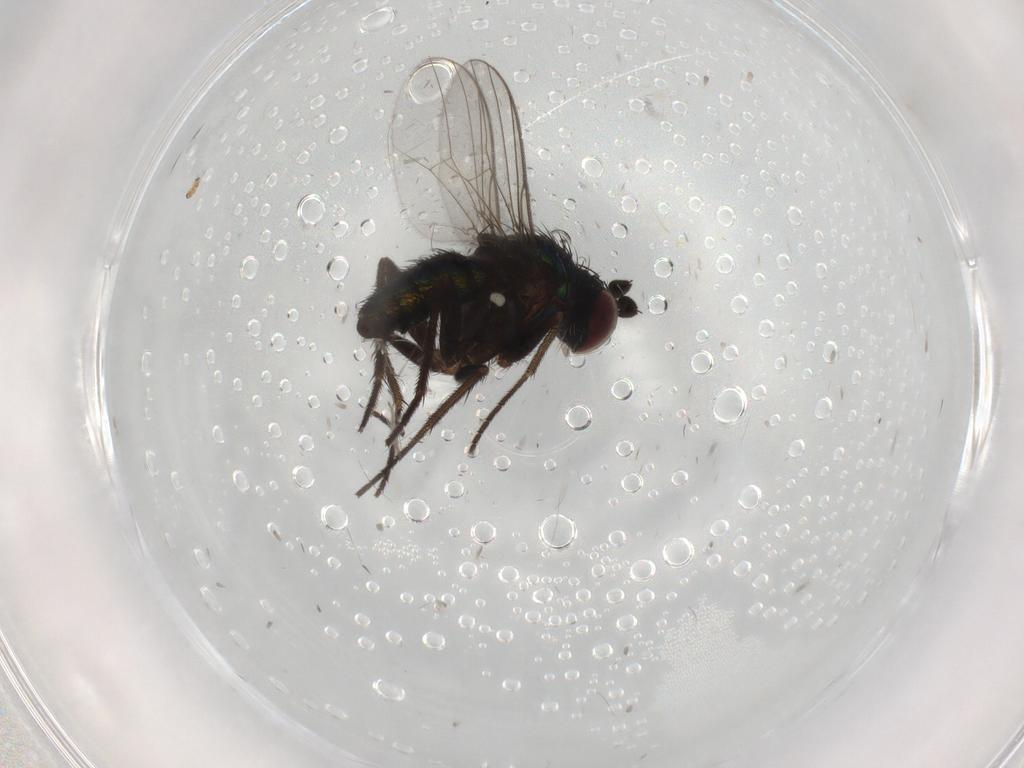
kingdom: Animalia
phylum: Arthropoda
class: Insecta
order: Diptera
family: Dolichopodidae
